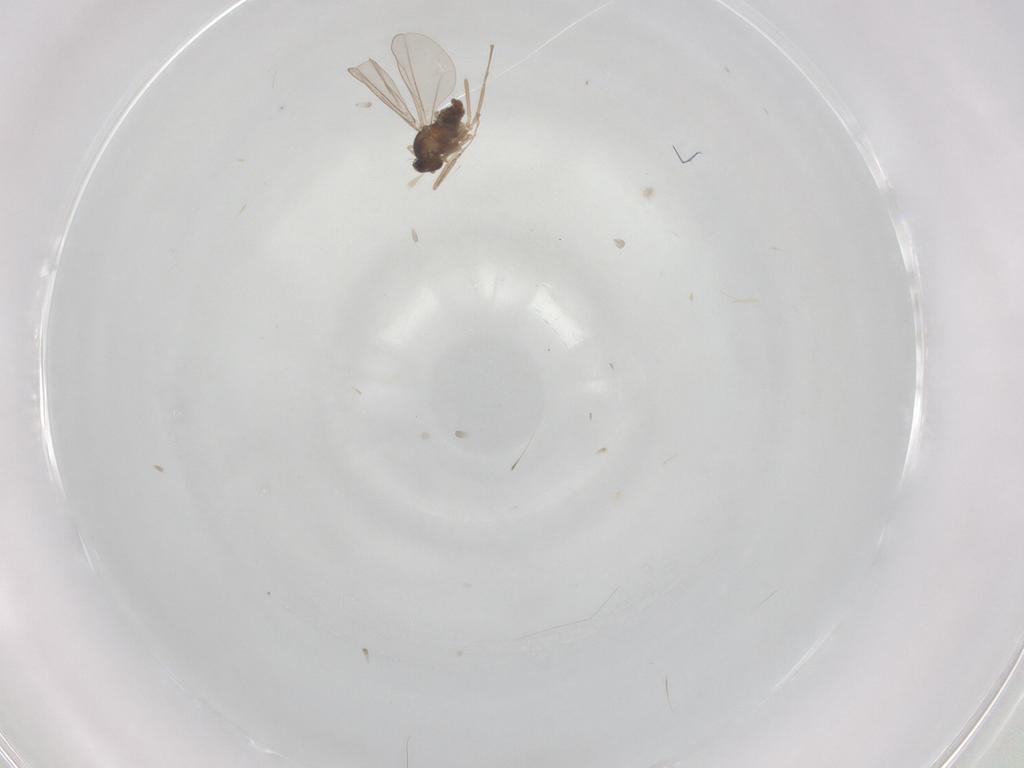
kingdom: Animalia
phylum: Arthropoda
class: Insecta
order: Diptera
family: Cecidomyiidae
